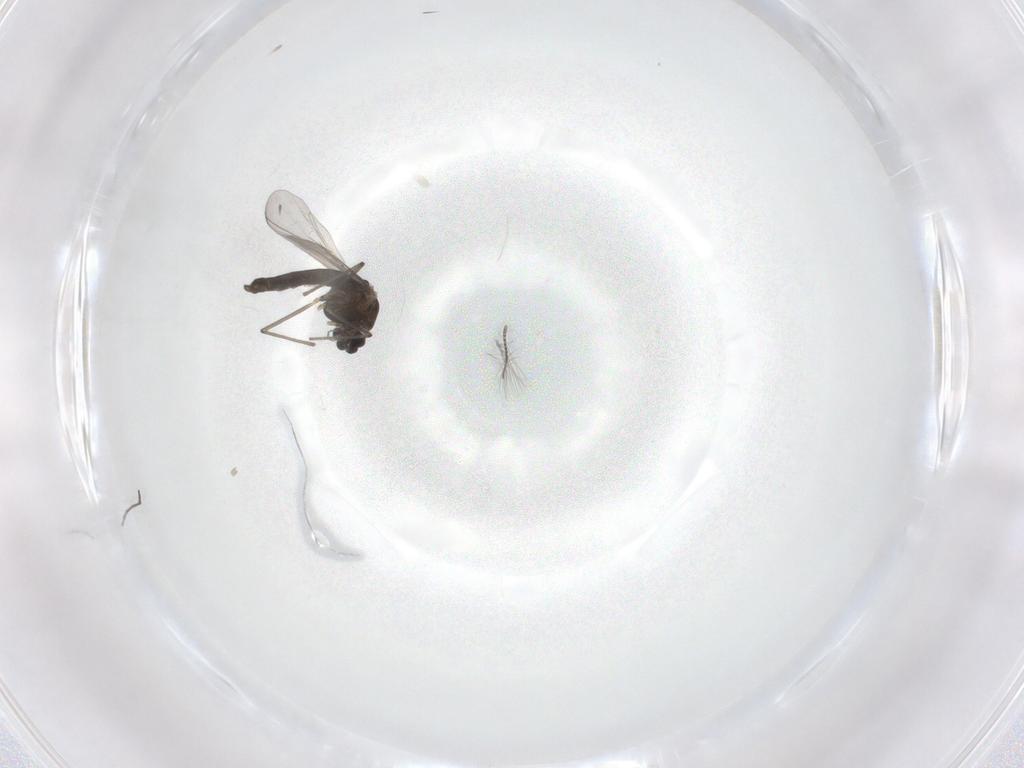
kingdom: Animalia
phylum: Arthropoda
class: Insecta
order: Diptera
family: Chironomidae
